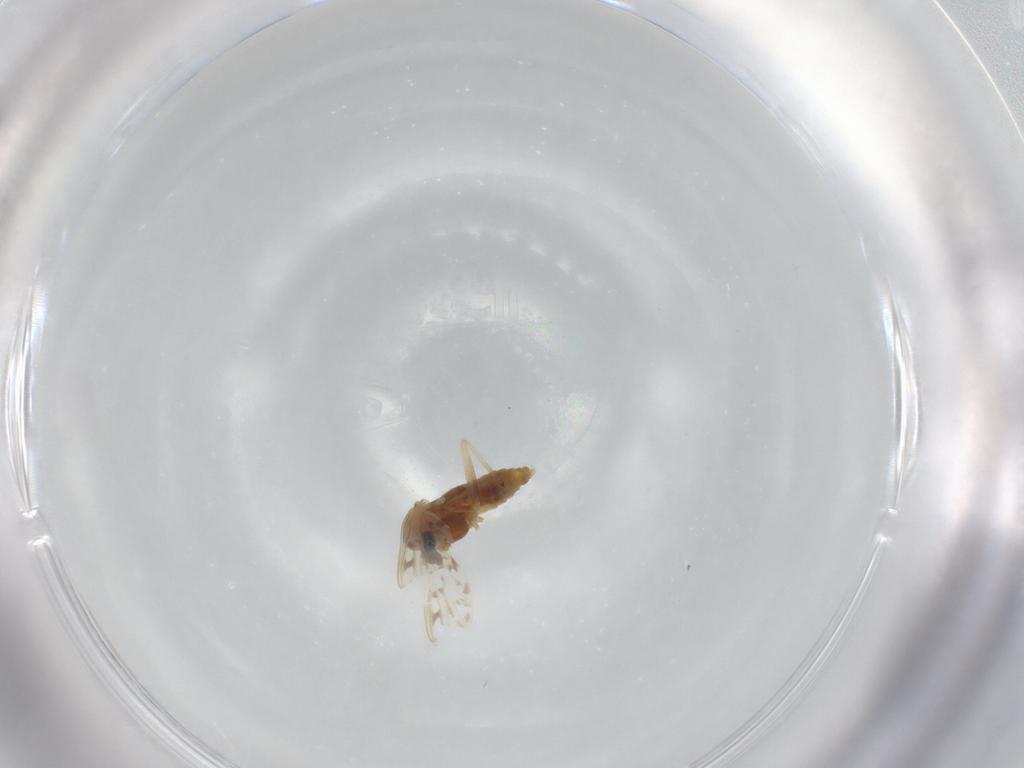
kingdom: Animalia
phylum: Arthropoda
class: Insecta
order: Diptera
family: Chironomidae
